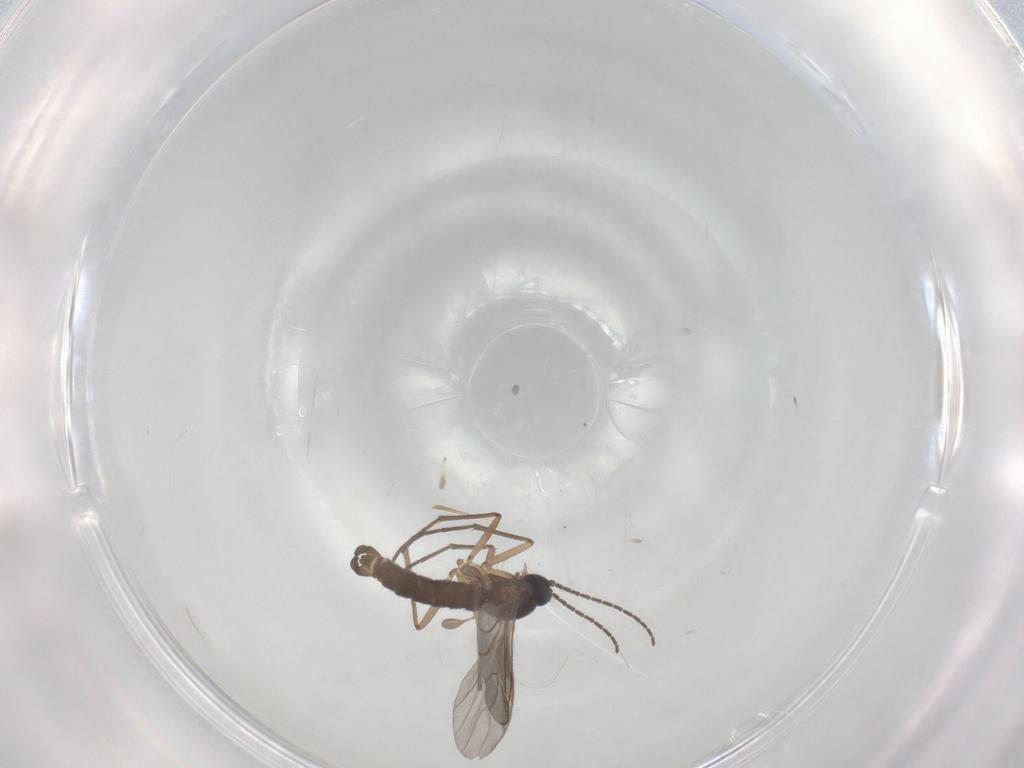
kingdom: Animalia
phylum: Arthropoda
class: Insecta
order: Diptera
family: Sciaridae
